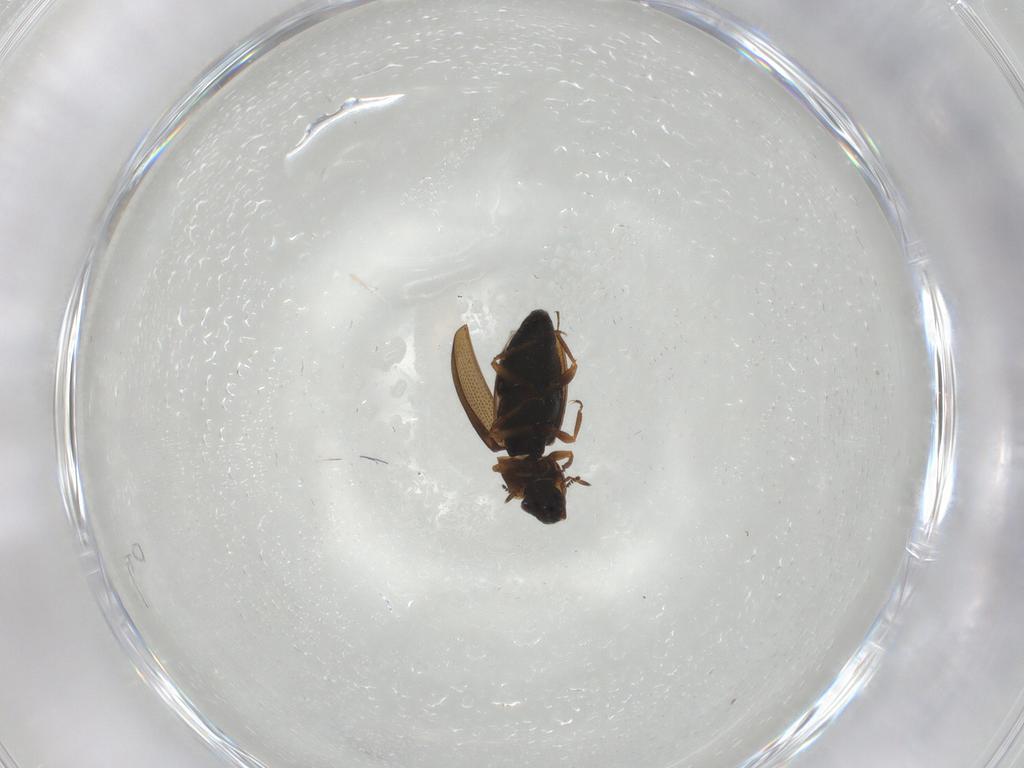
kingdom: Animalia
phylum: Arthropoda
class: Insecta
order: Coleoptera
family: Hydraenidae
